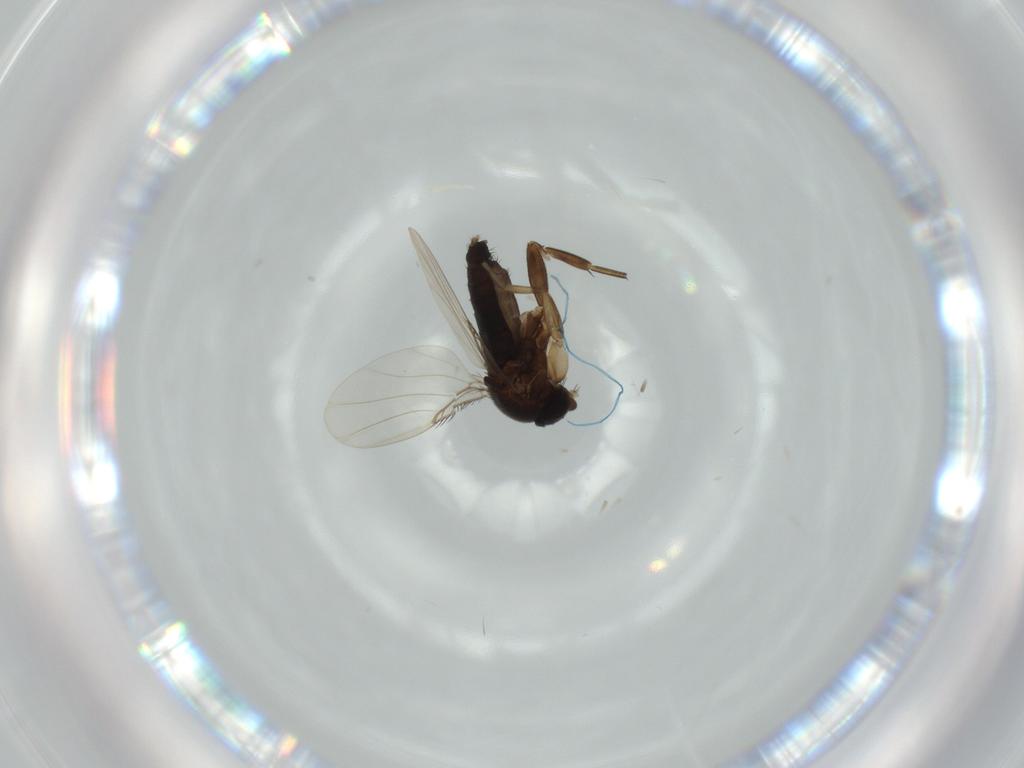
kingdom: Animalia
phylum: Arthropoda
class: Insecta
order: Diptera
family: Phoridae
